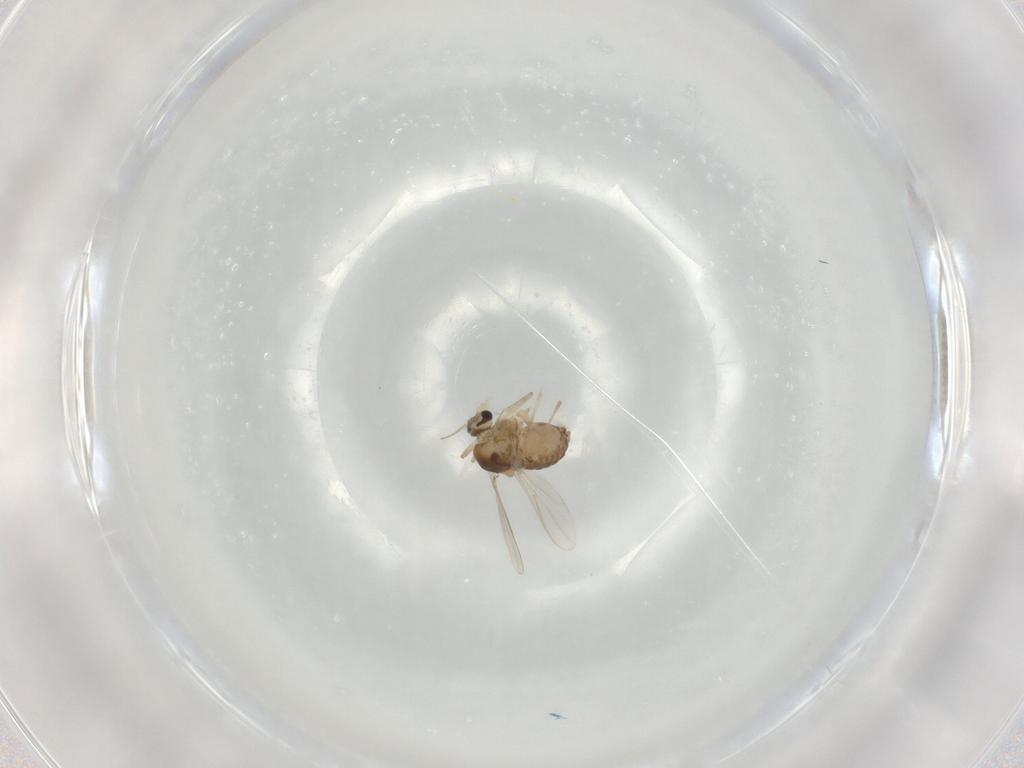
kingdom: Animalia
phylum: Arthropoda
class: Insecta
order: Diptera
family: Chironomidae
